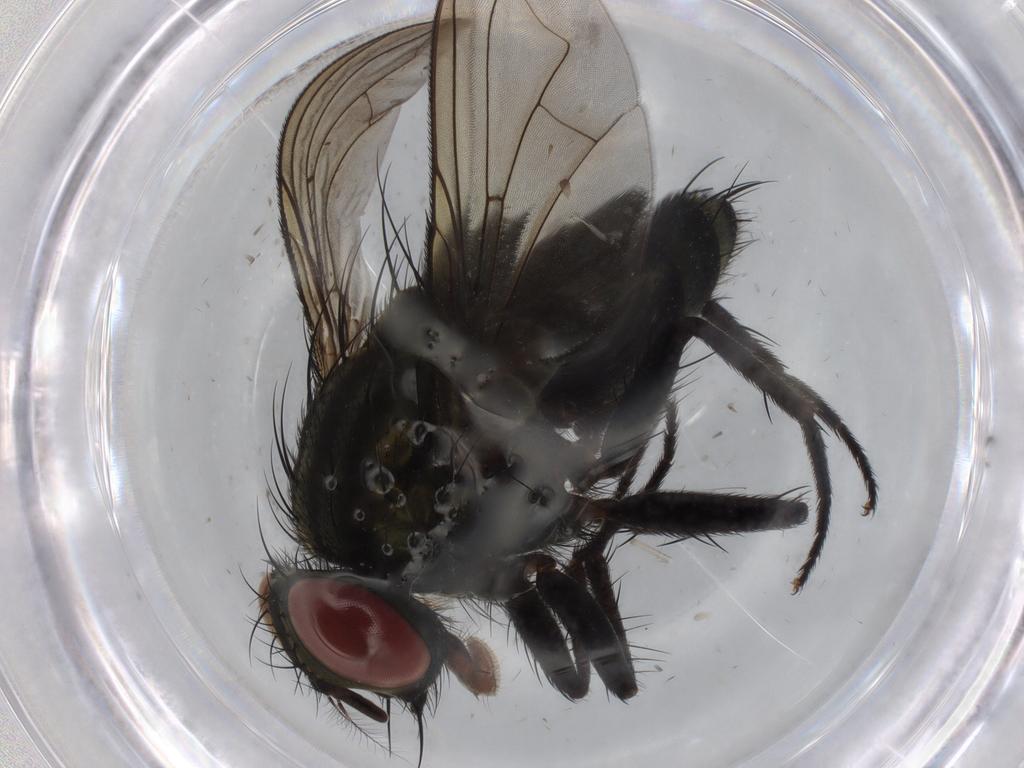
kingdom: Animalia
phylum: Arthropoda
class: Insecta
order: Diptera
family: Sarcophagidae
